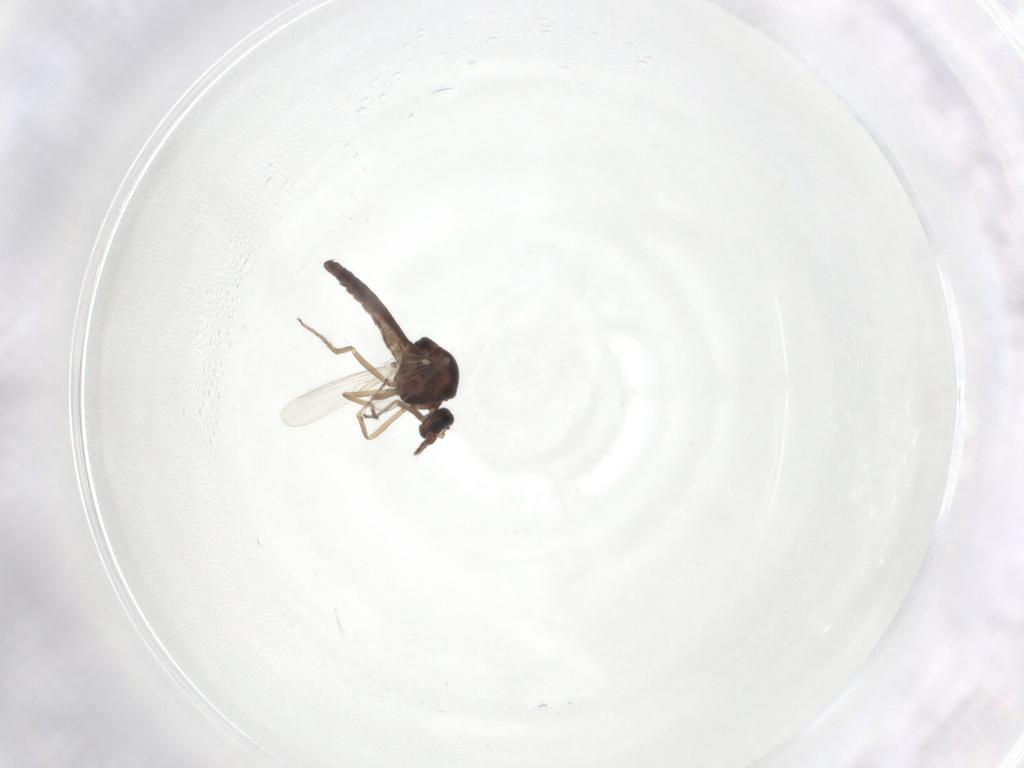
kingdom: Animalia
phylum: Arthropoda
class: Insecta
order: Diptera
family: Ceratopogonidae
